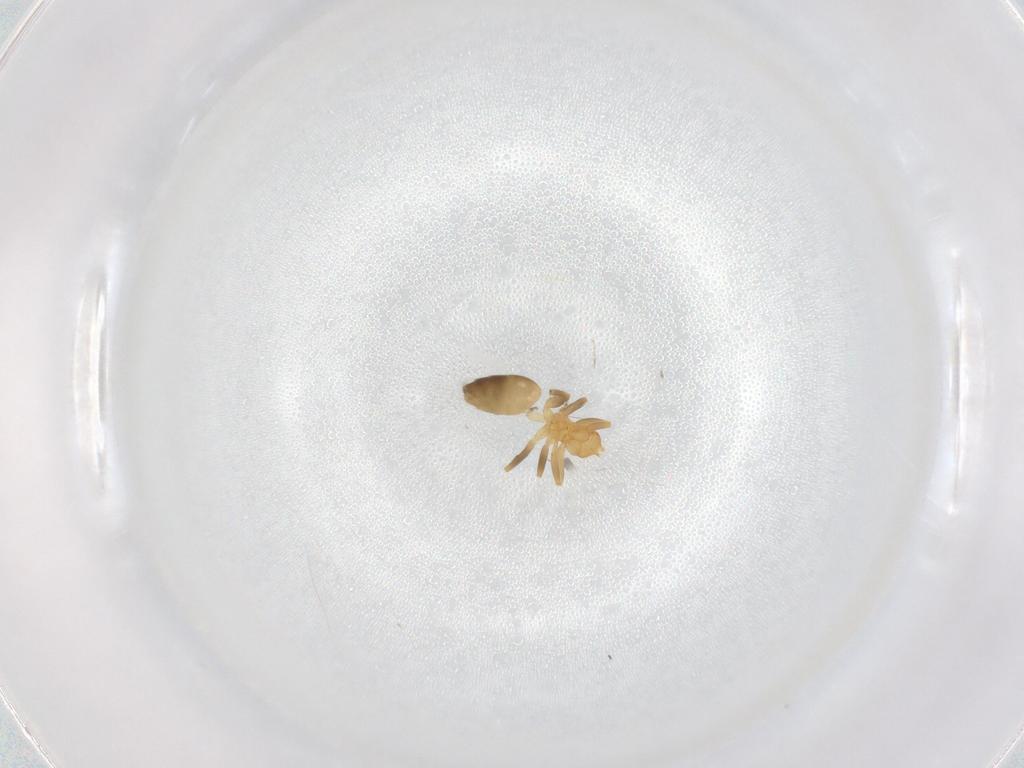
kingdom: Animalia
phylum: Arthropoda
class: Insecta
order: Hymenoptera
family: Formicidae
